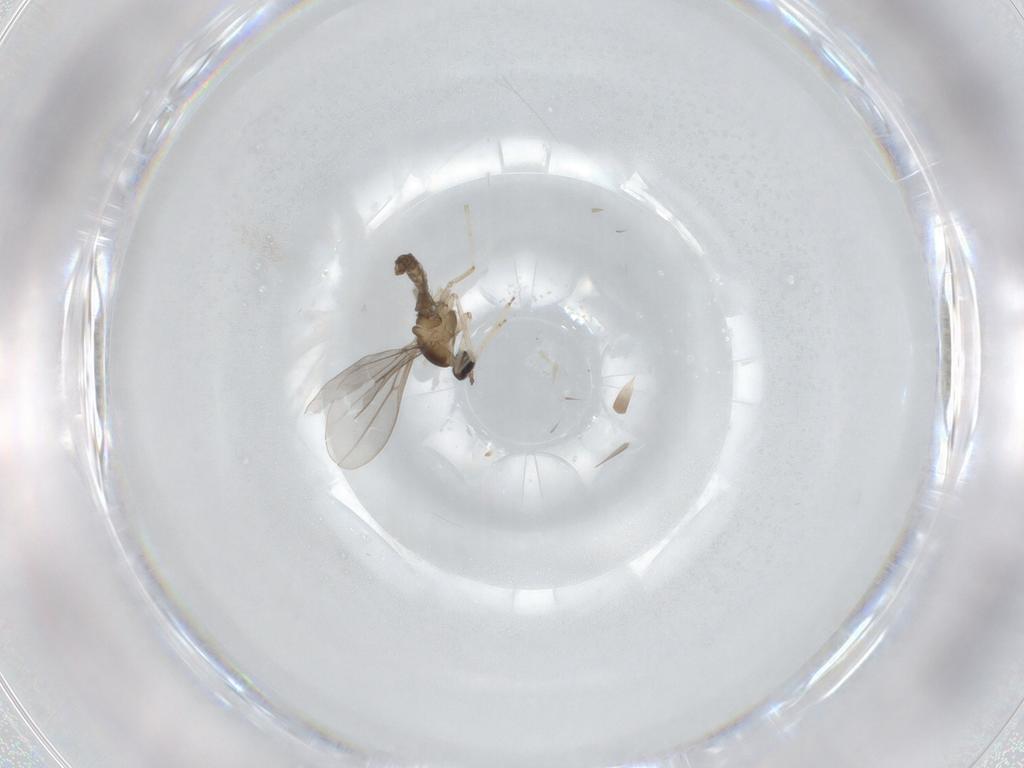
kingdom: Animalia
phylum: Arthropoda
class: Insecta
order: Diptera
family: Cecidomyiidae
